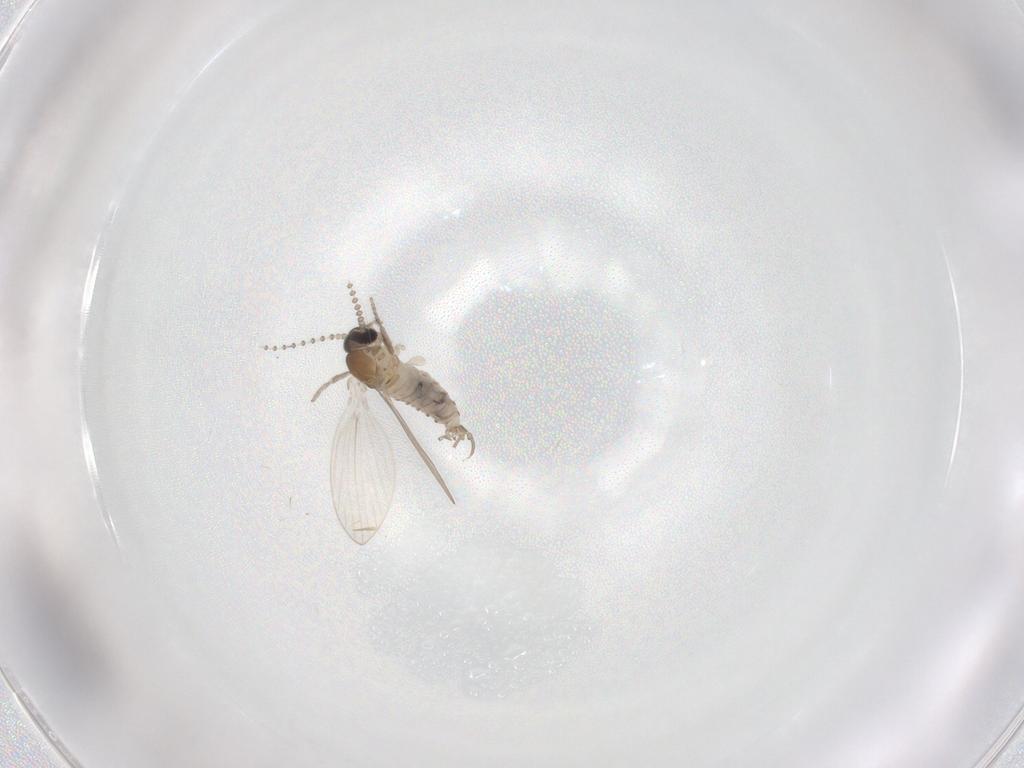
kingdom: Animalia
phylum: Arthropoda
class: Insecta
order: Diptera
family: Psychodidae
